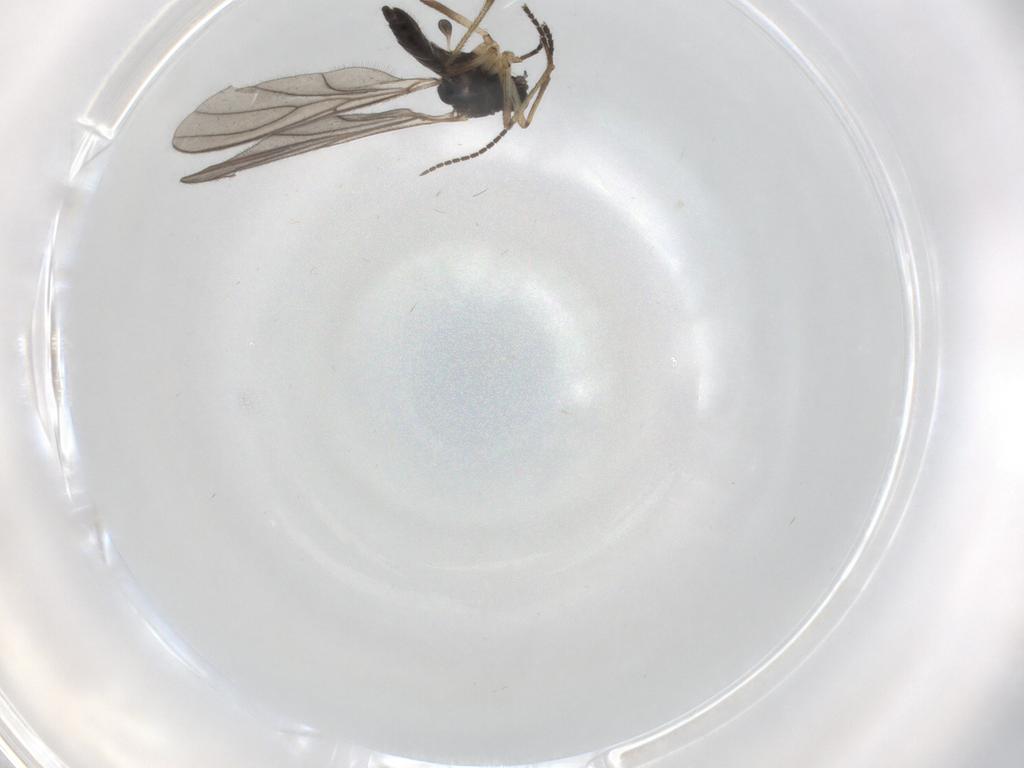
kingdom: Animalia
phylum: Arthropoda
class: Insecta
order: Diptera
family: Sciaridae
